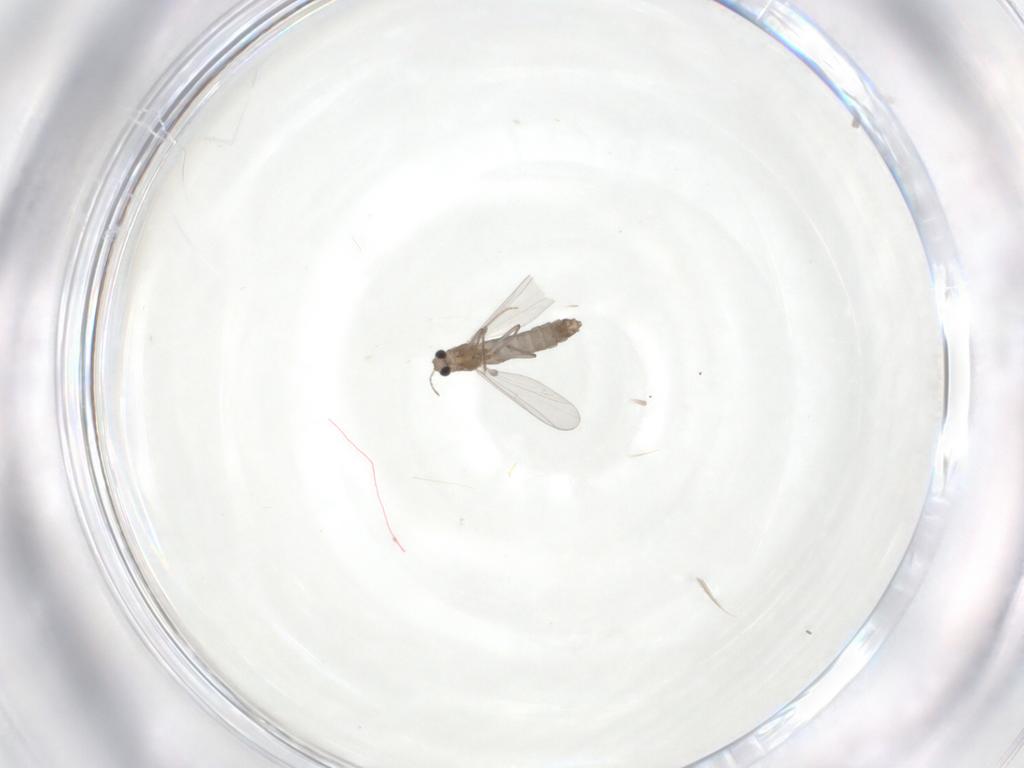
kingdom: Animalia
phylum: Arthropoda
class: Insecta
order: Diptera
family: Chironomidae
